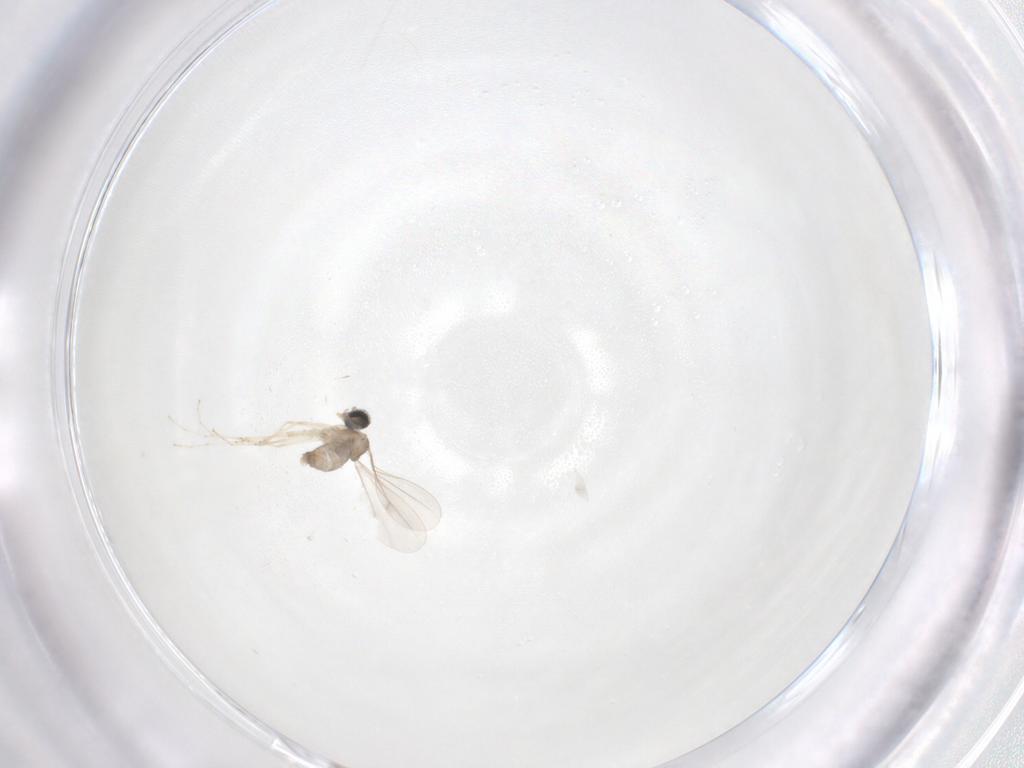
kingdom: Animalia
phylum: Arthropoda
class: Insecta
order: Diptera
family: Cecidomyiidae
